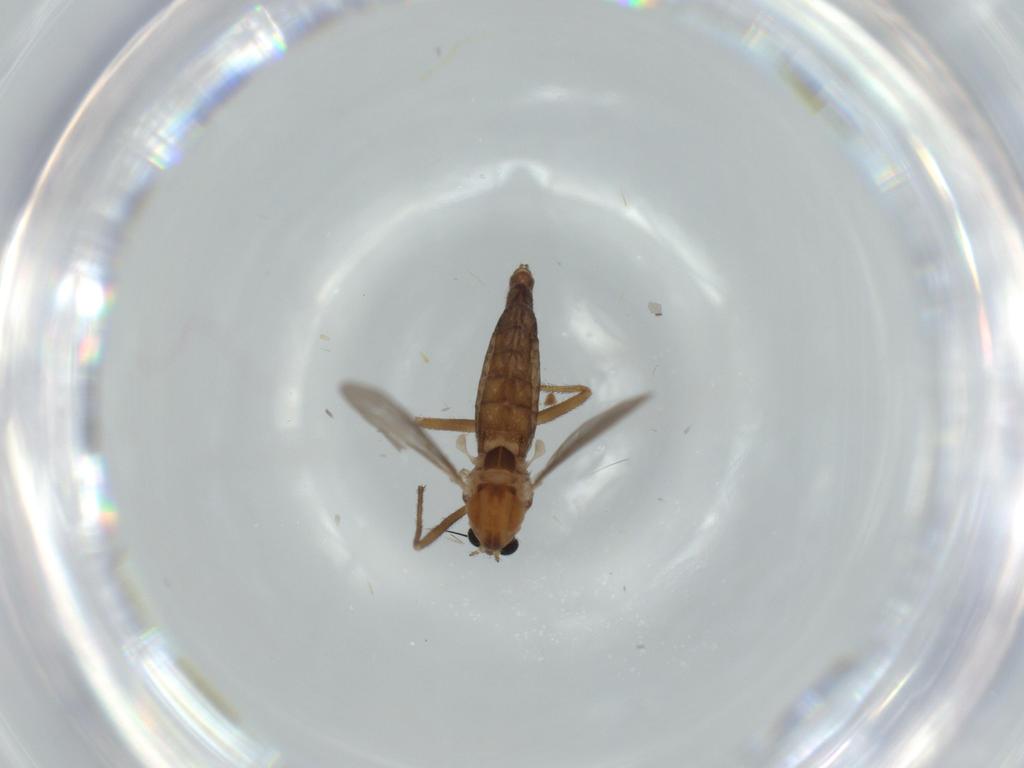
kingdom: Animalia
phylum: Arthropoda
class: Insecta
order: Diptera
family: Chironomidae
